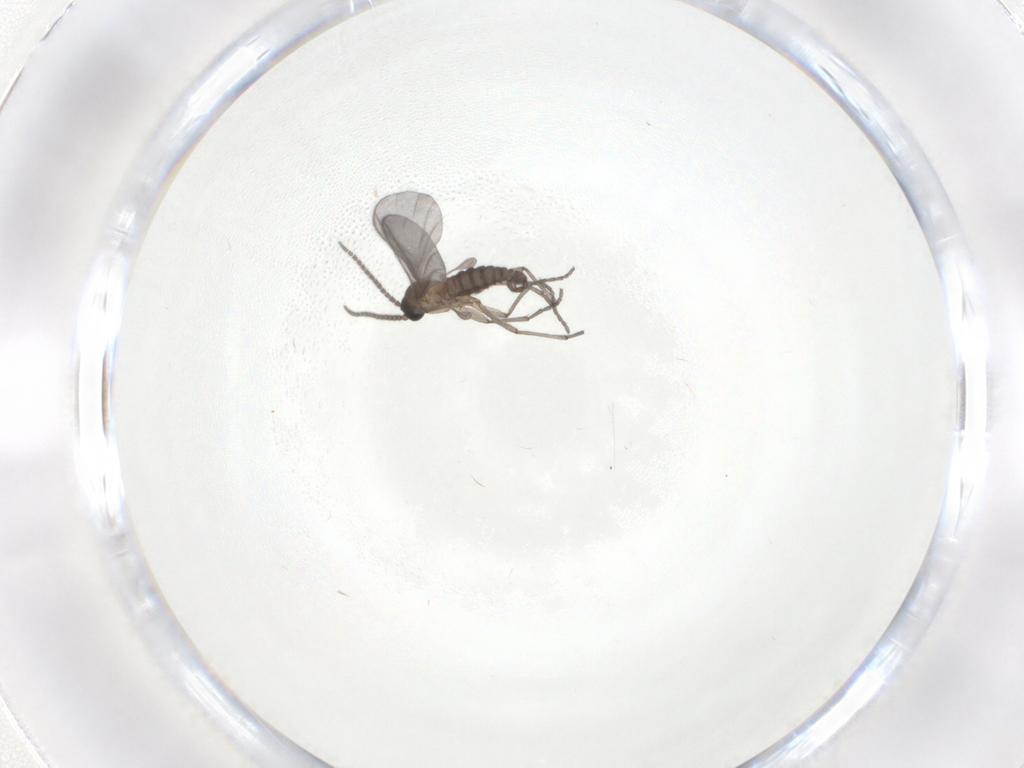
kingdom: Animalia
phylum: Arthropoda
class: Insecta
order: Diptera
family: Sciaridae
